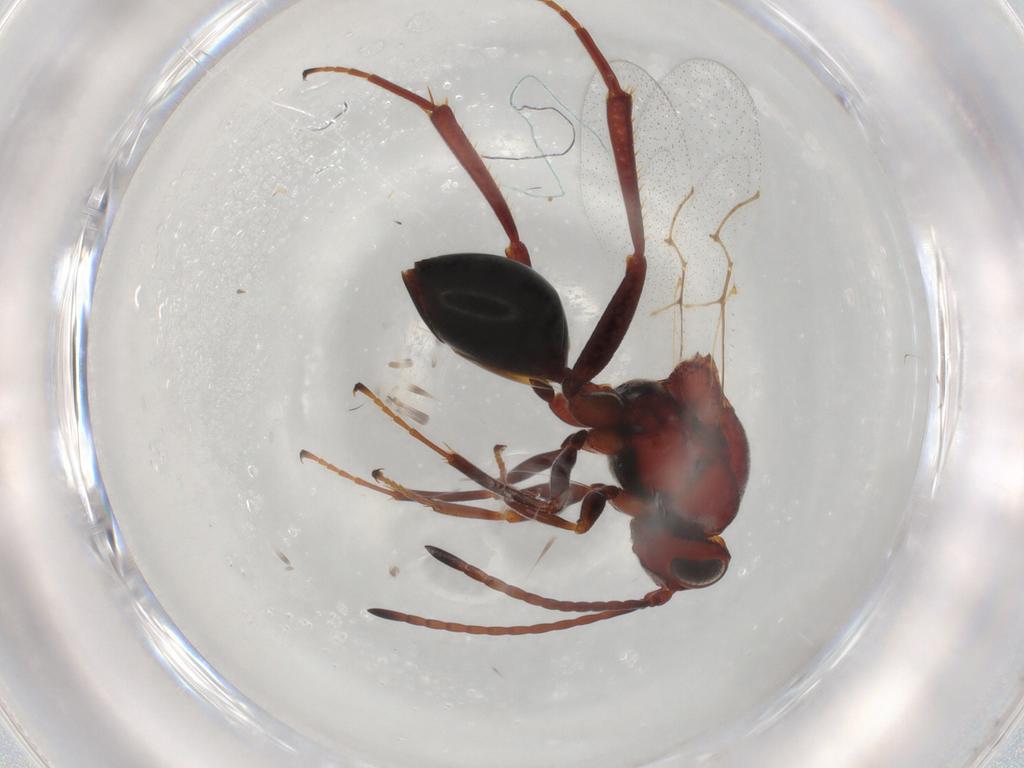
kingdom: Animalia
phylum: Arthropoda
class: Insecta
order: Hymenoptera
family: Figitidae
